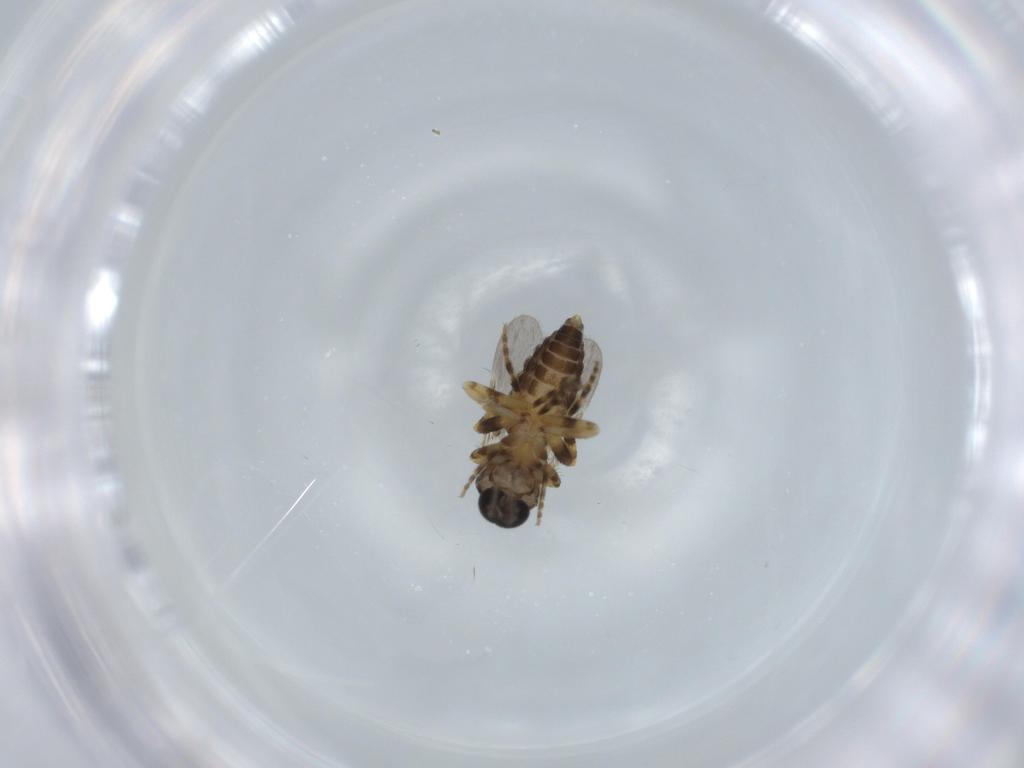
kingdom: Animalia
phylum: Arthropoda
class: Insecta
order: Diptera
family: Ceratopogonidae
